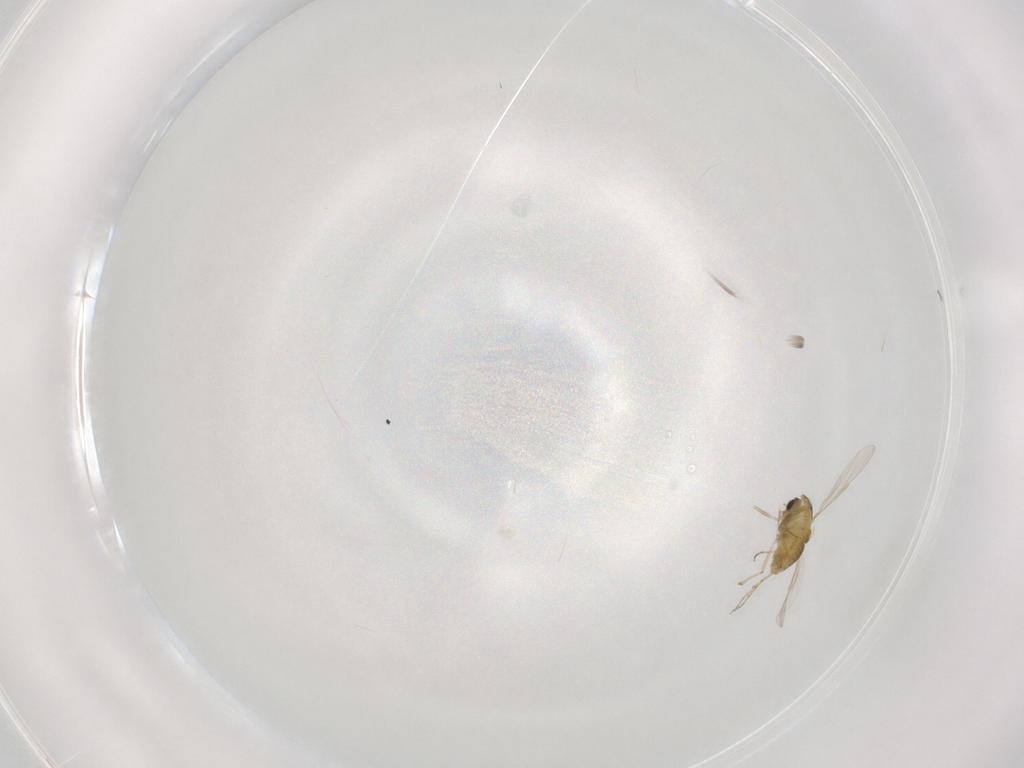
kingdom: Animalia
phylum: Arthropoda
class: Insecta
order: Diptera
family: Chironomidae
